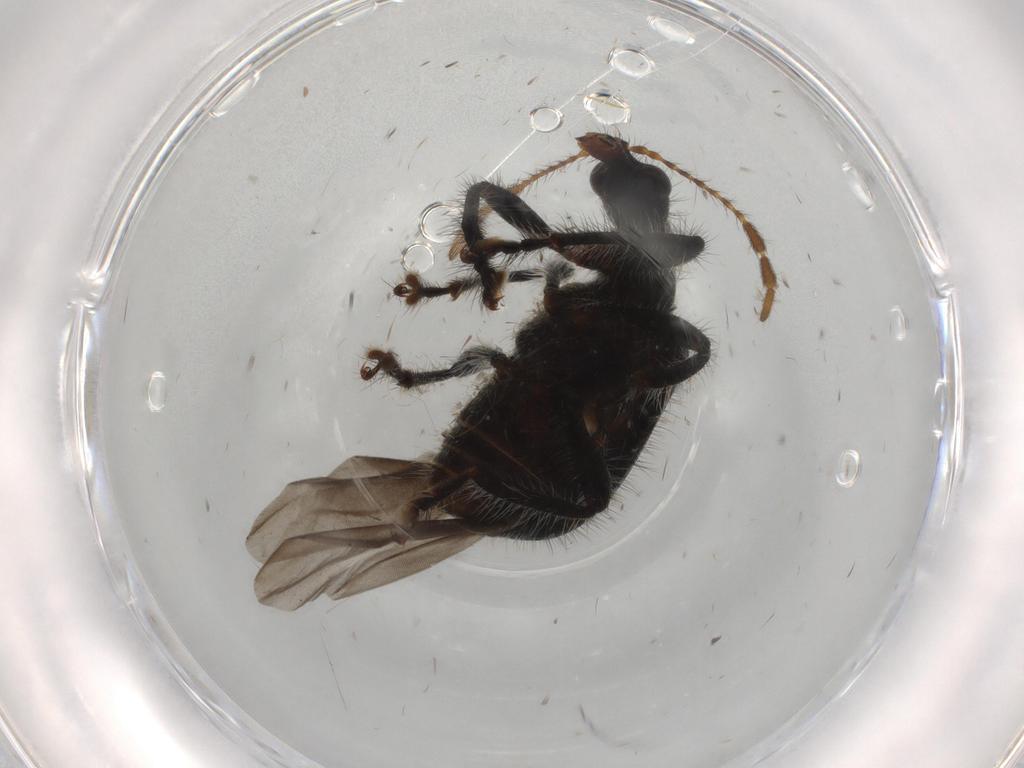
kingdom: Animalia
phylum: Arthropoda
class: Insecta
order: Coleoptera
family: Attelabidae
